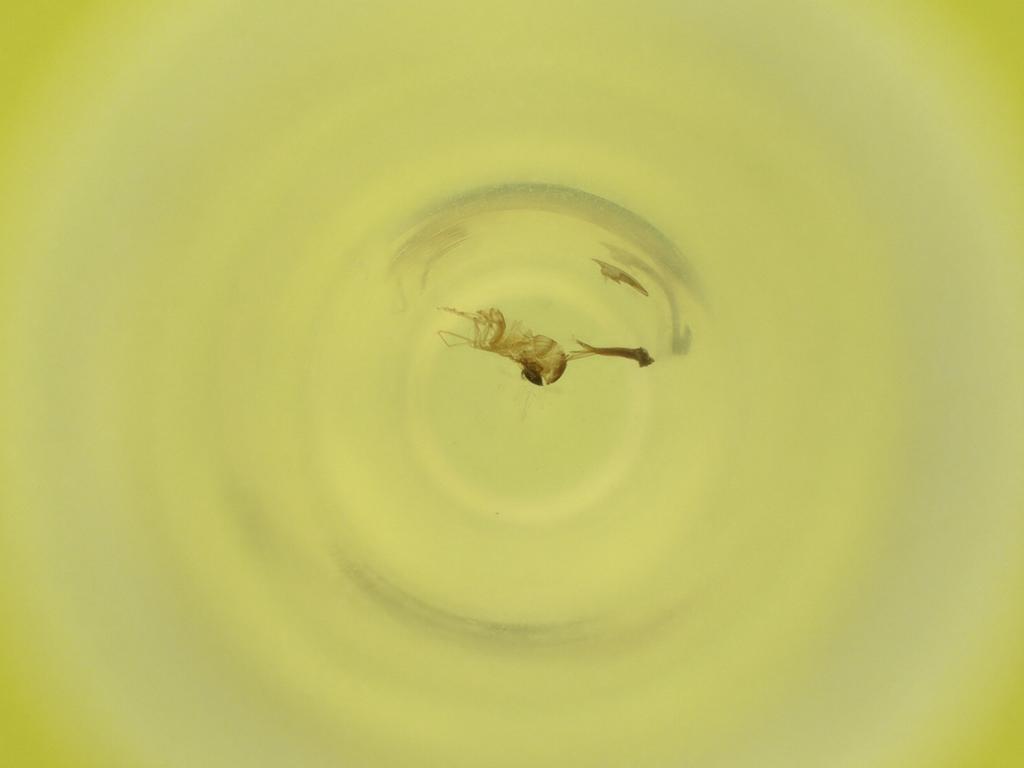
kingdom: Animalia
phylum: Arthropoda
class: Insecta
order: Diptera
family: Cecidomyiidae
